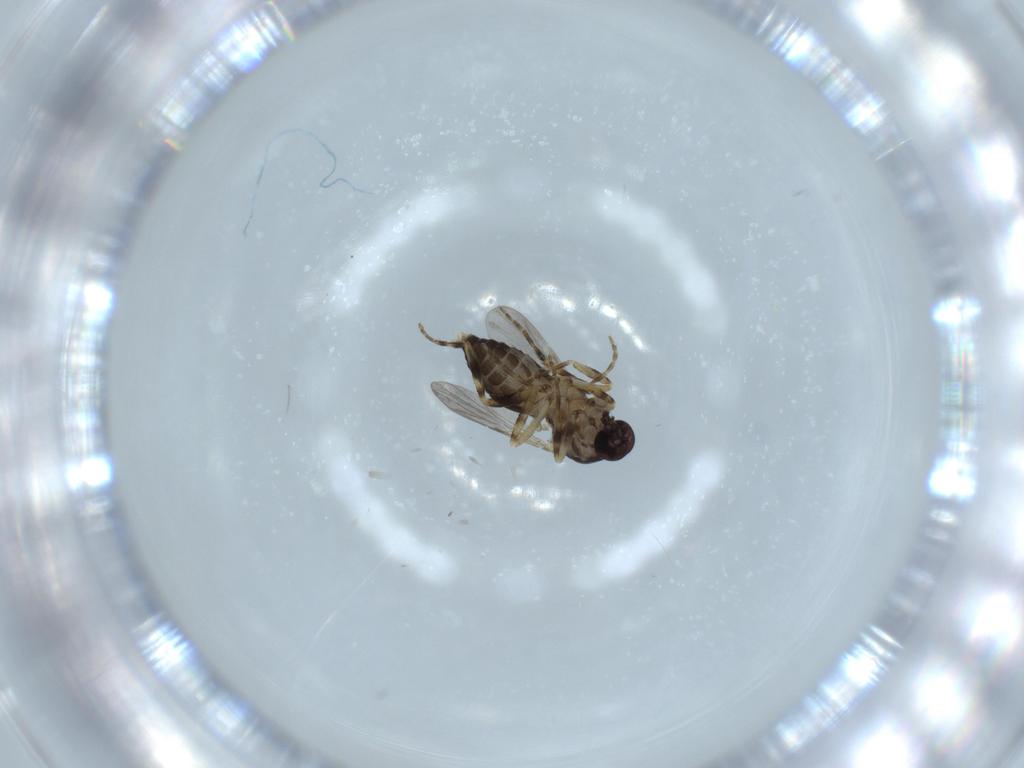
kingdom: Animalia
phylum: Arthropoda
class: Insecta
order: Diptera
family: Ceratopogonidae
